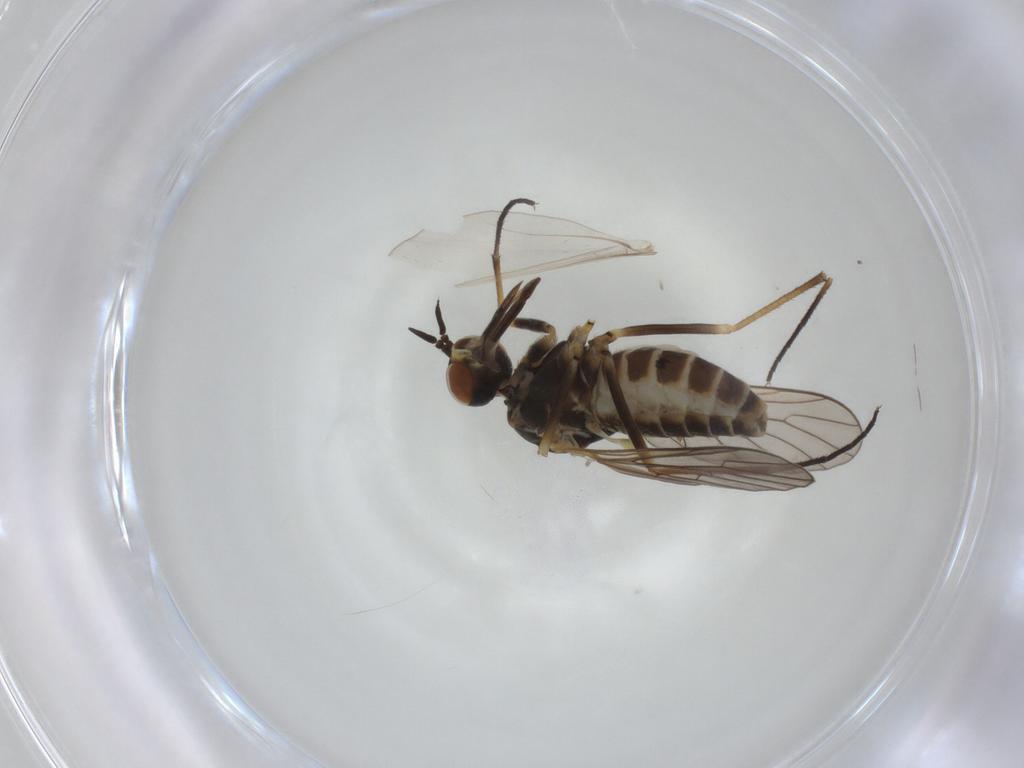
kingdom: Animalia
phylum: Arthropoda
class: Insecta
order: Diptera
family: Bombyliidae
